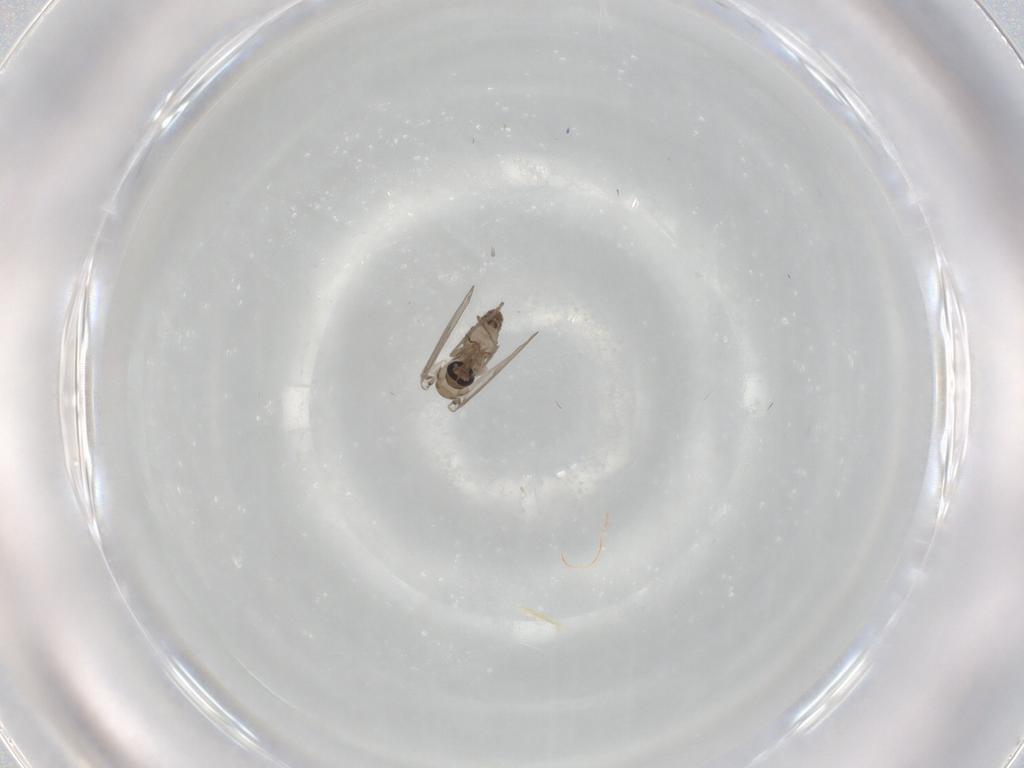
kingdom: Animalia
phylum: Arthropoda
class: Insecta
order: Diptera
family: Psychodidae
